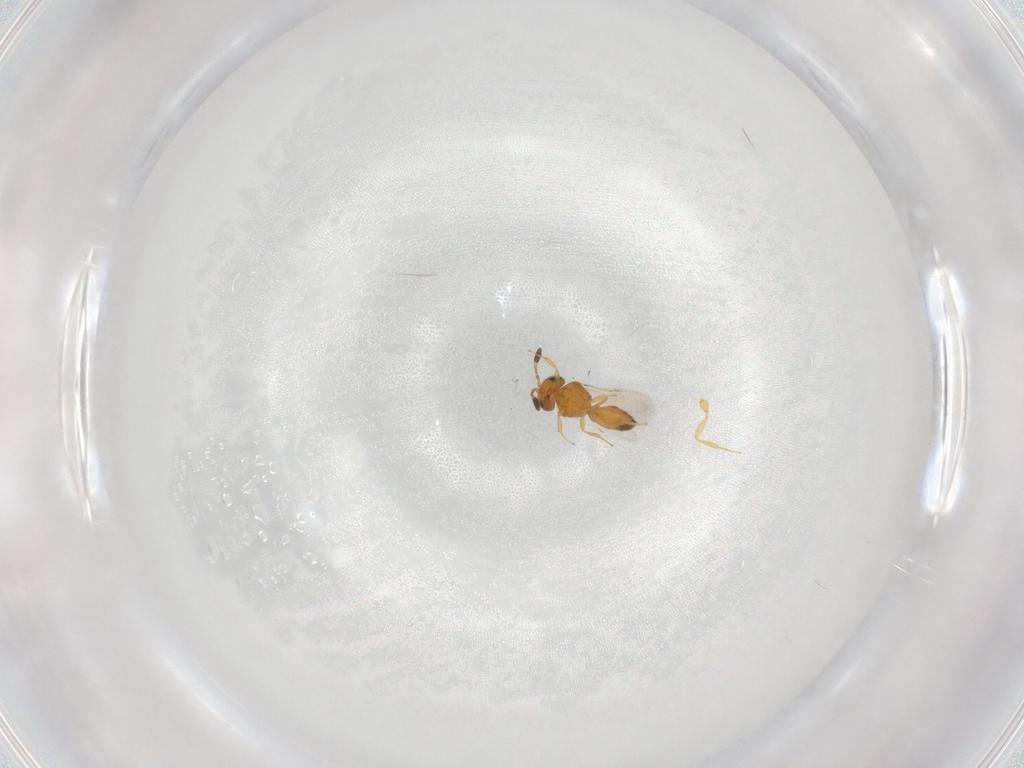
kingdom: Animalia
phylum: Arthropoda
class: Insecta
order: Hymenoptera
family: Scelionidae
